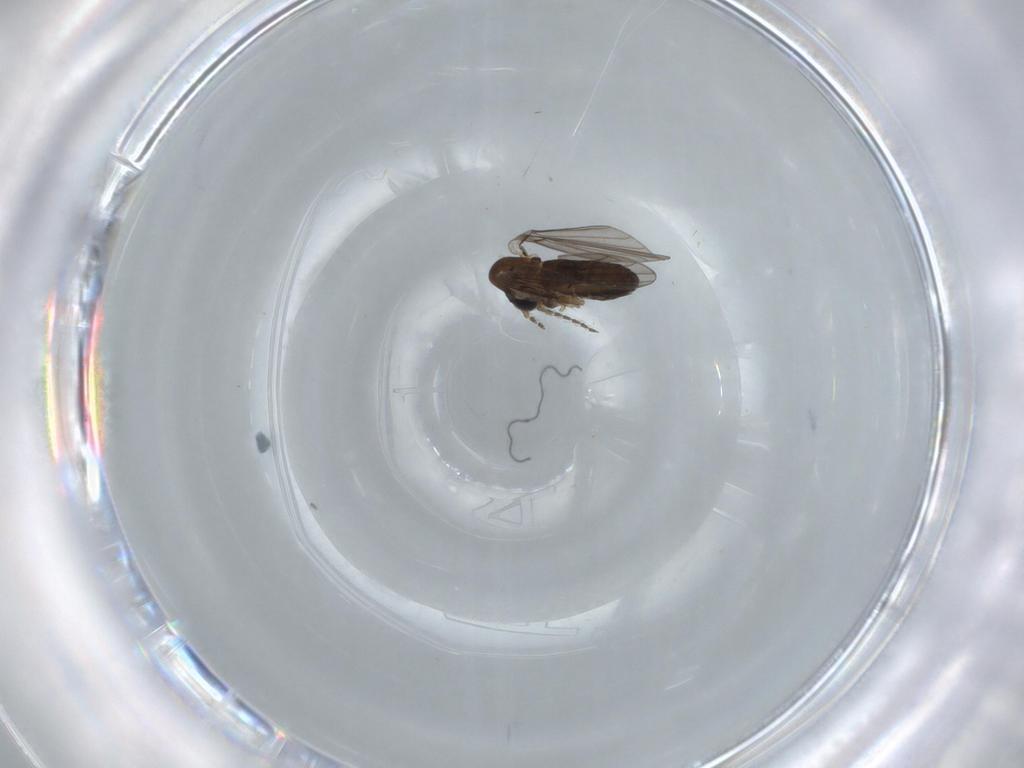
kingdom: Animalia
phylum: Arthropoda
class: Insecta
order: Diptera
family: Psychodidae
